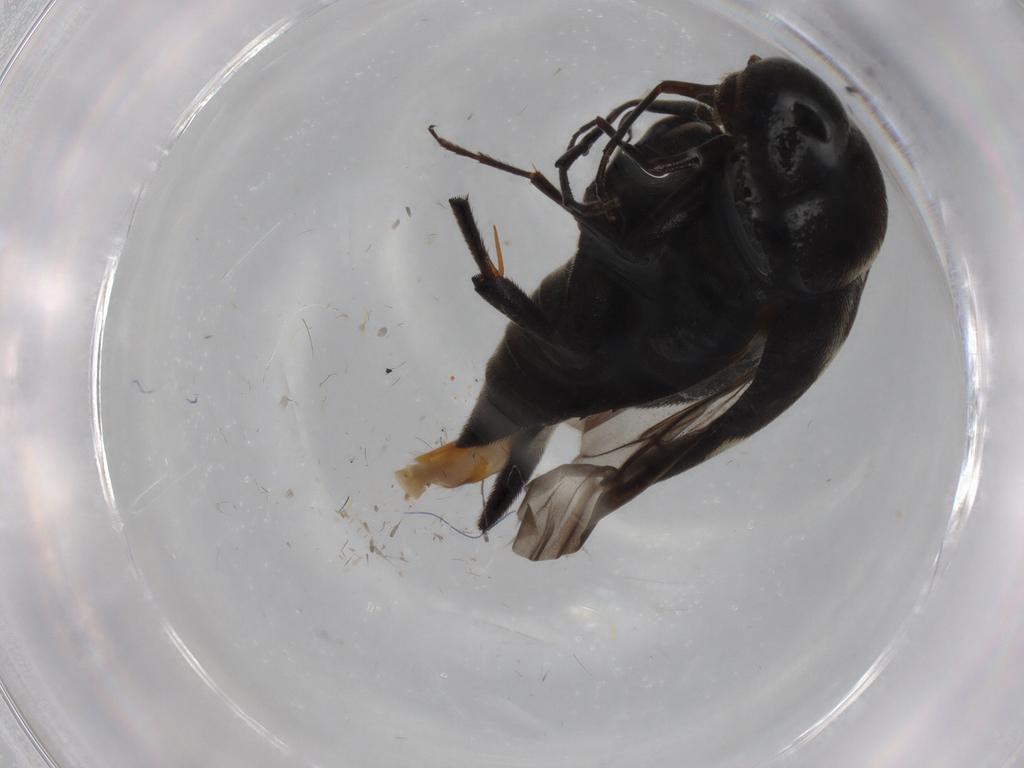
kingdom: Animalia
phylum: Arthropoda
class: Insecta
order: Coleoptera
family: Mordellidae
